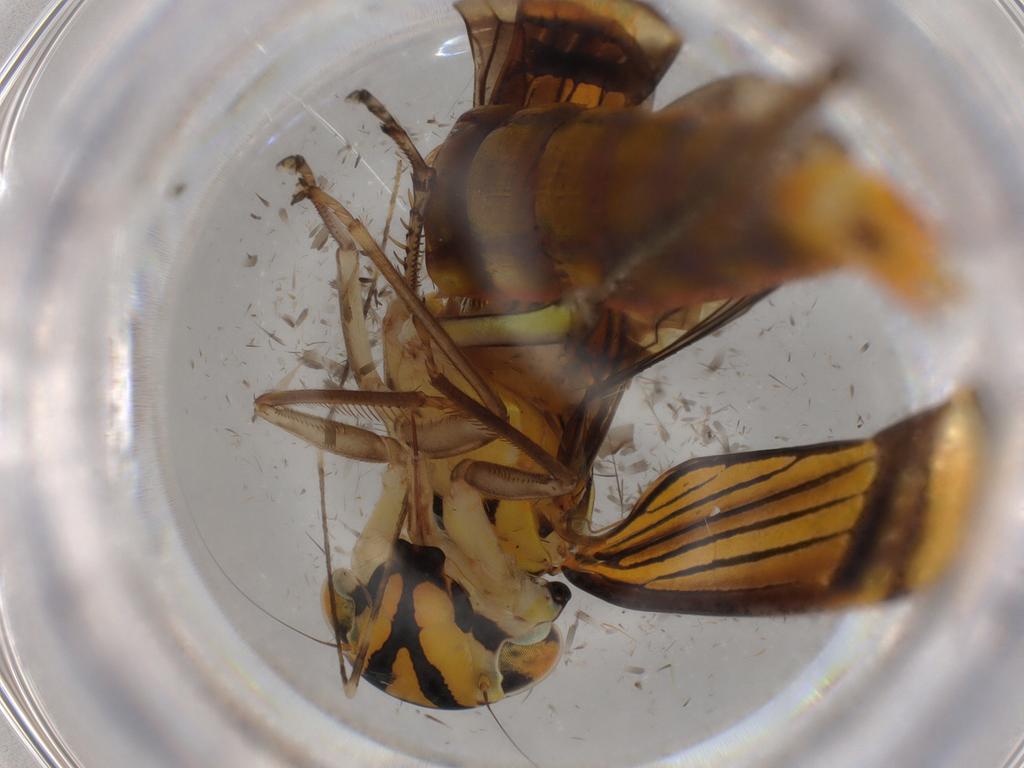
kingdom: Animalia
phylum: Arthropoda
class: Insecta
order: Hemiptera
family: Cicadellidae
